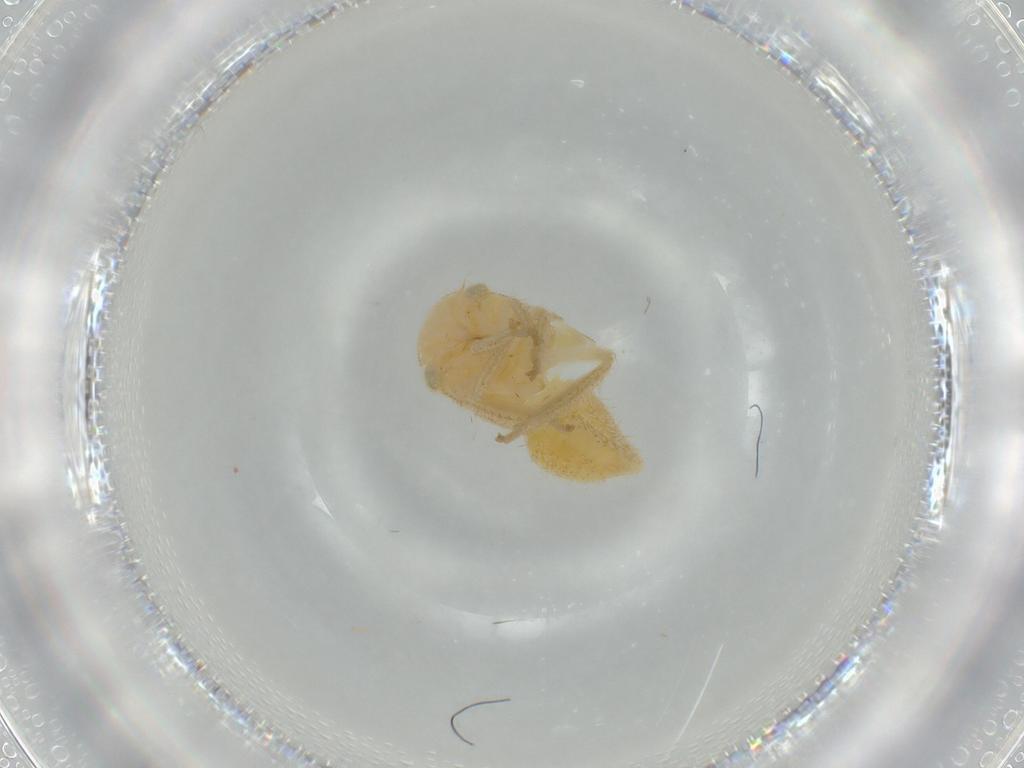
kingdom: Animalia
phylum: Arthropoda
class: Insecta
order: Hemiptera
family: Cicadellidae
